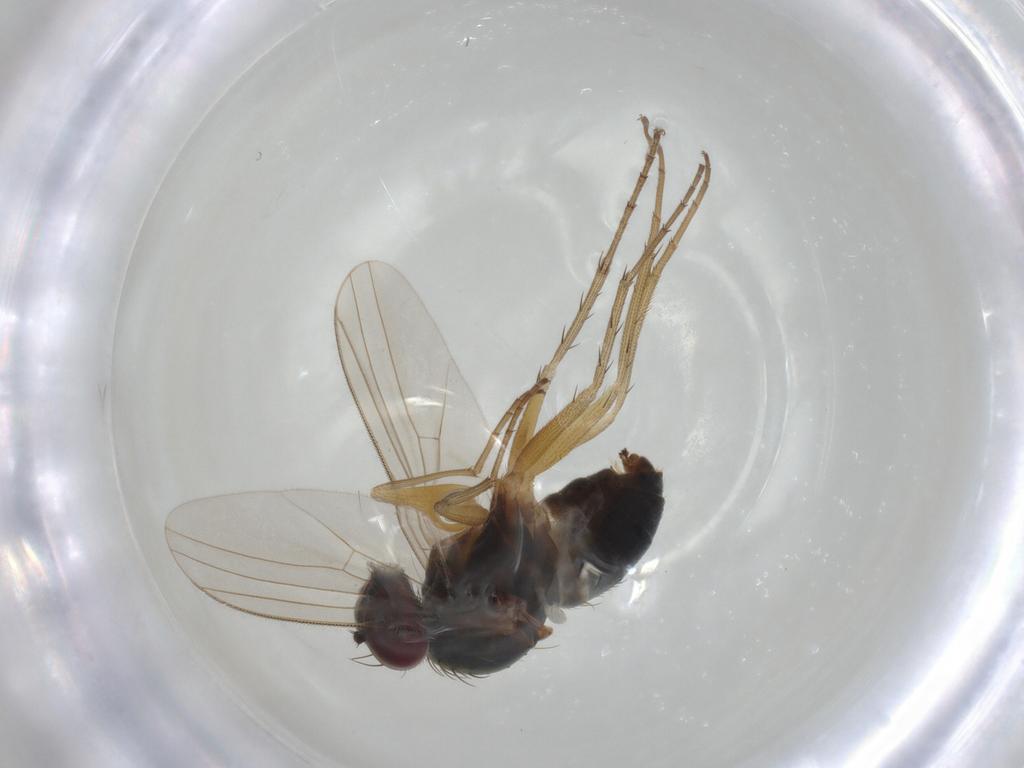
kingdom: Animalia
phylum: Arthropoda
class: Insecta
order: Diptera
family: Dolichopodidae
